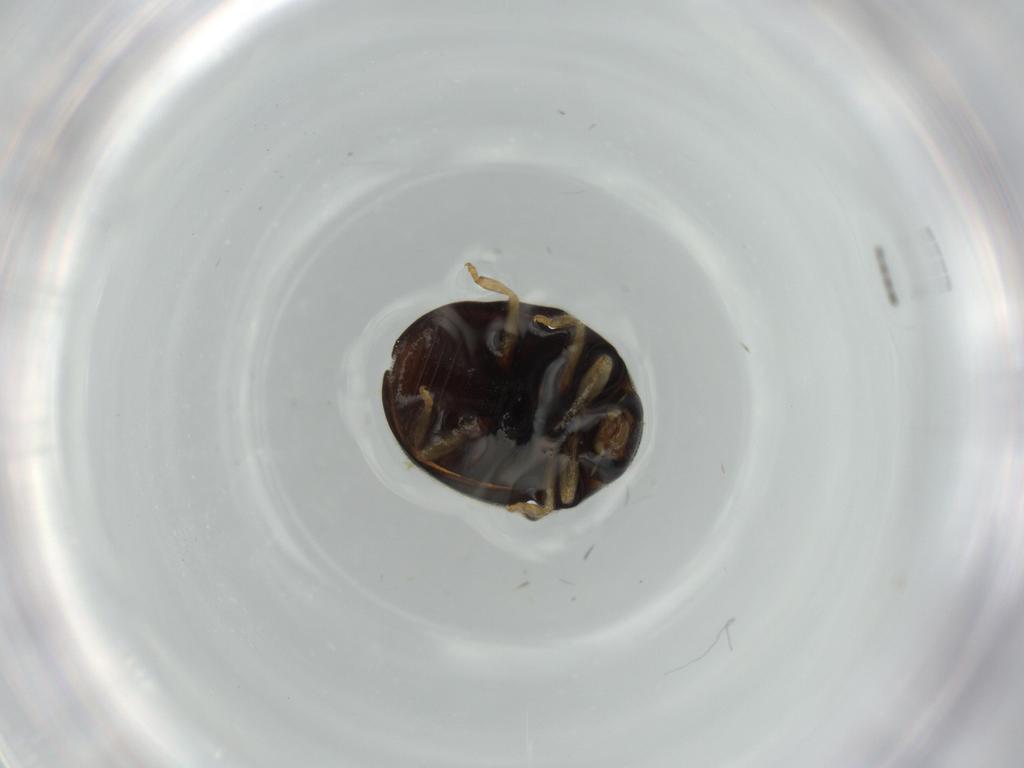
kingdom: Animalia
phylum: Arthropoda
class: Insecta
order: Coleoptera
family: Coccinellidae
